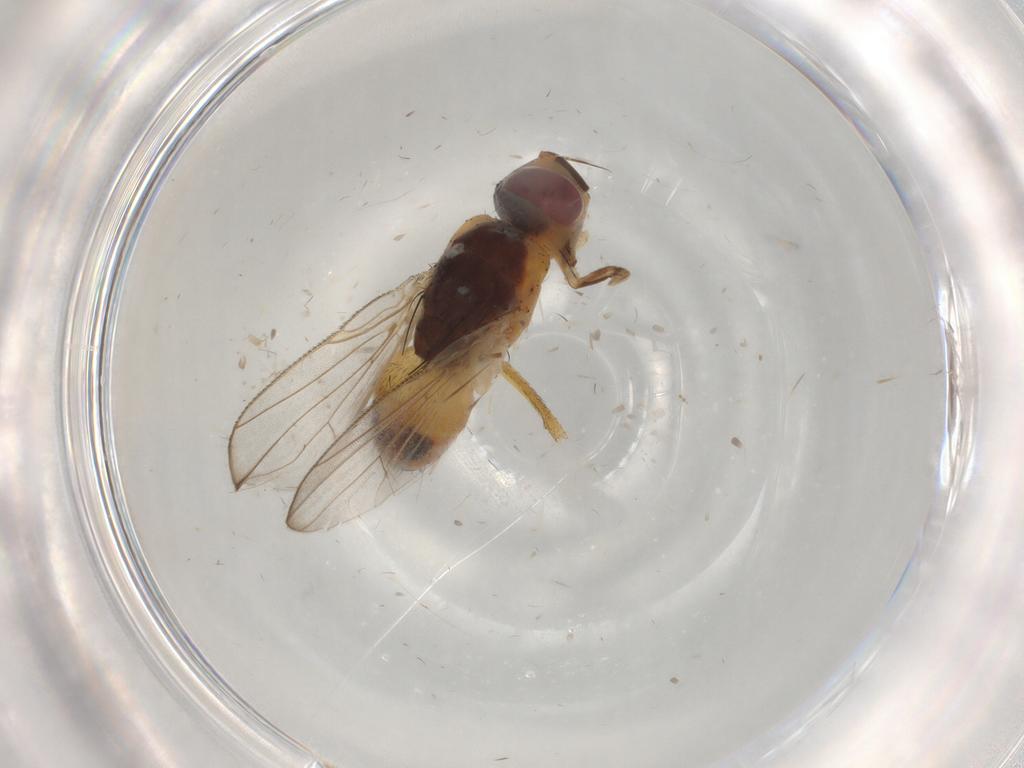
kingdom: Animalia
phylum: Arthropoda
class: Insecta
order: Diptera
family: Muscidae
